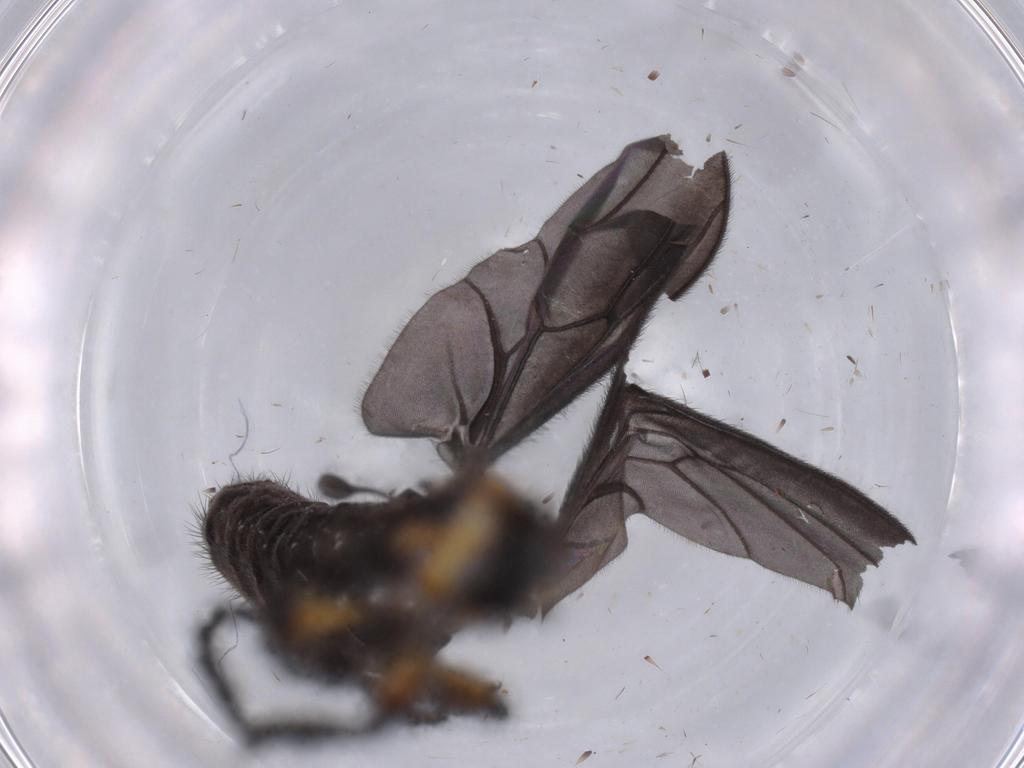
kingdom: Animalia
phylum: Arthropoda
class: Insecta
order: Diptera
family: Bibionidae
